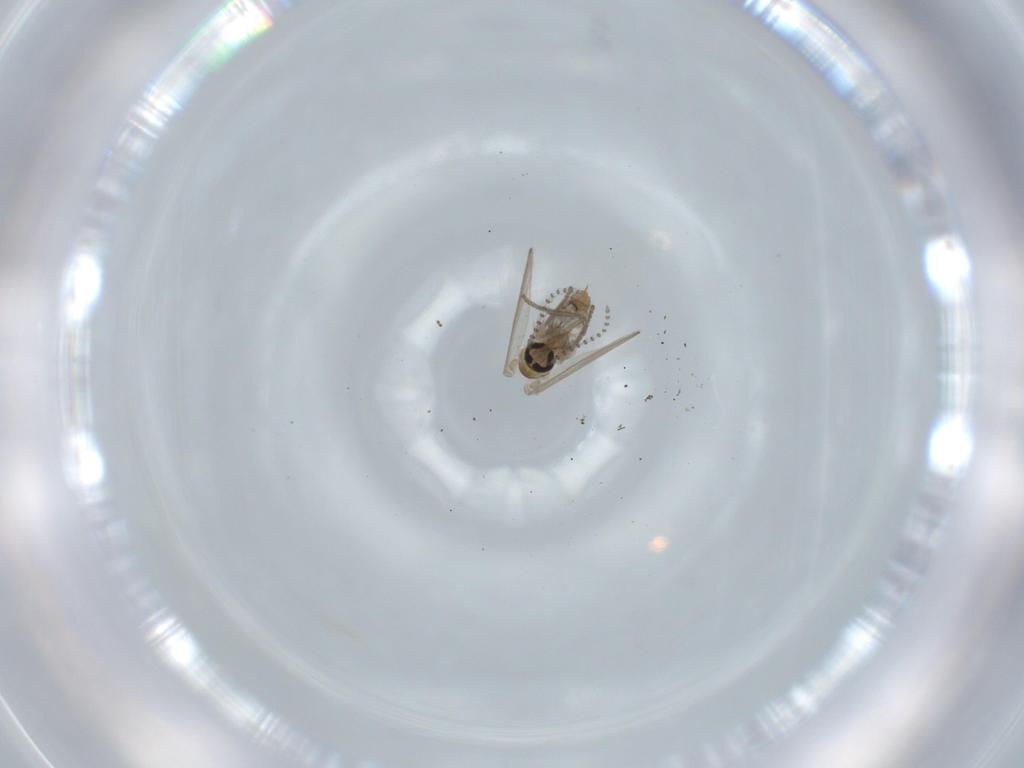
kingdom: Animalia
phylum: Arthropoda
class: Insecta
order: Diptera
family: Psychodidae
